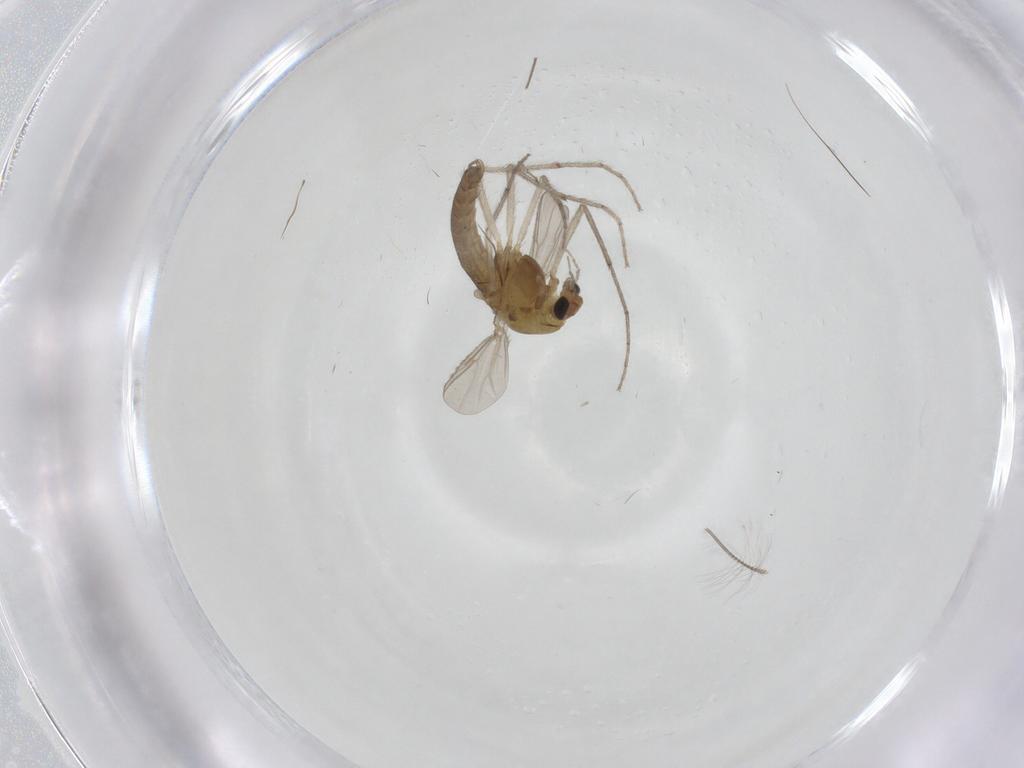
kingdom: Animalia
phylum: Arthropoda
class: Insecta
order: Diptera
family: Chironomidae
